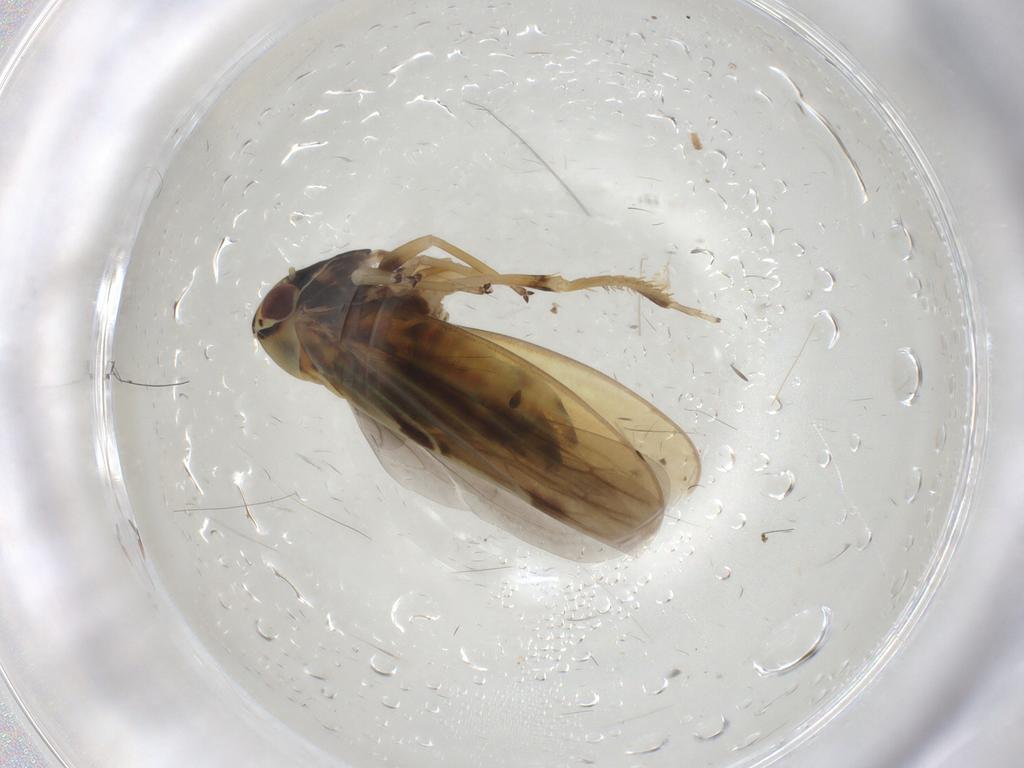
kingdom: Animalia
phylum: Arthropoda
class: Insecta
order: Hemiptera
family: Cicadellidae
